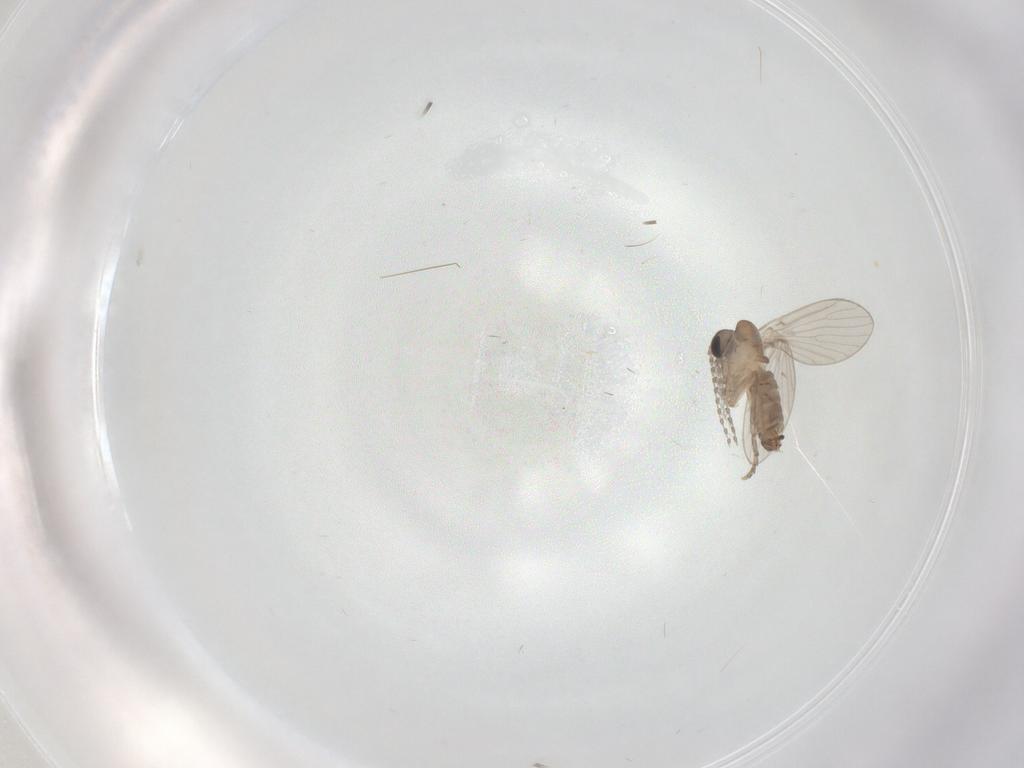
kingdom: Animalia
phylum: Arthropoda
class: Insecta
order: Diptera
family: Psychodidae
